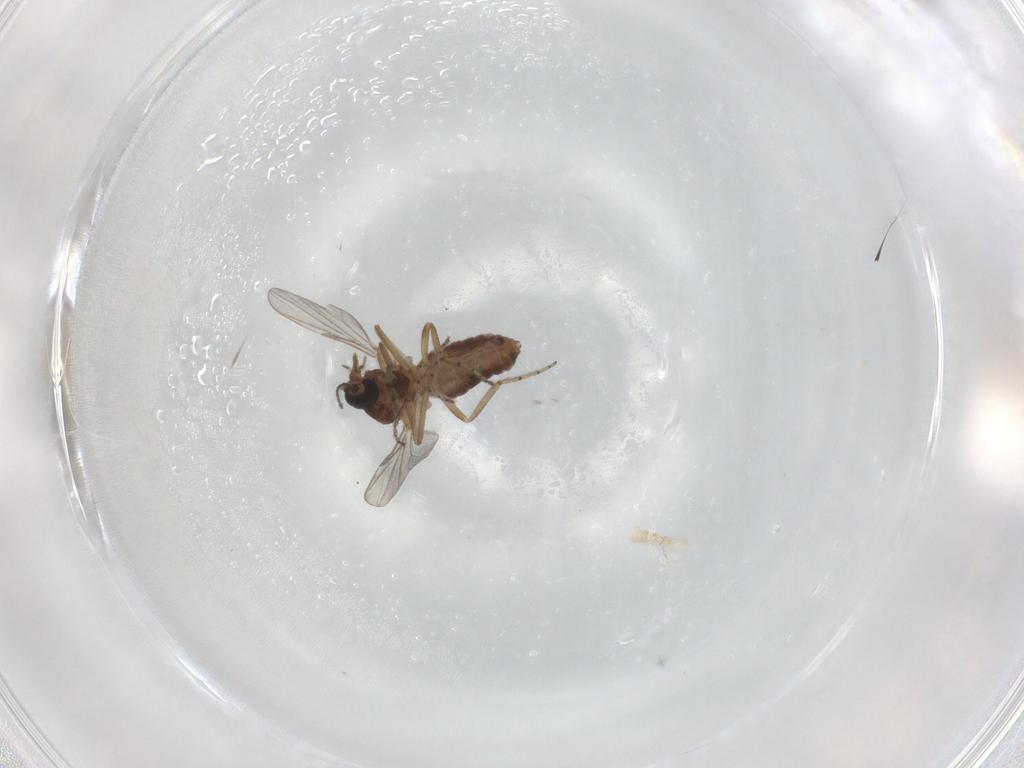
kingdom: Animalia
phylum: Arthropoda
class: Insecta
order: Diptera
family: Ceratopogonidae
